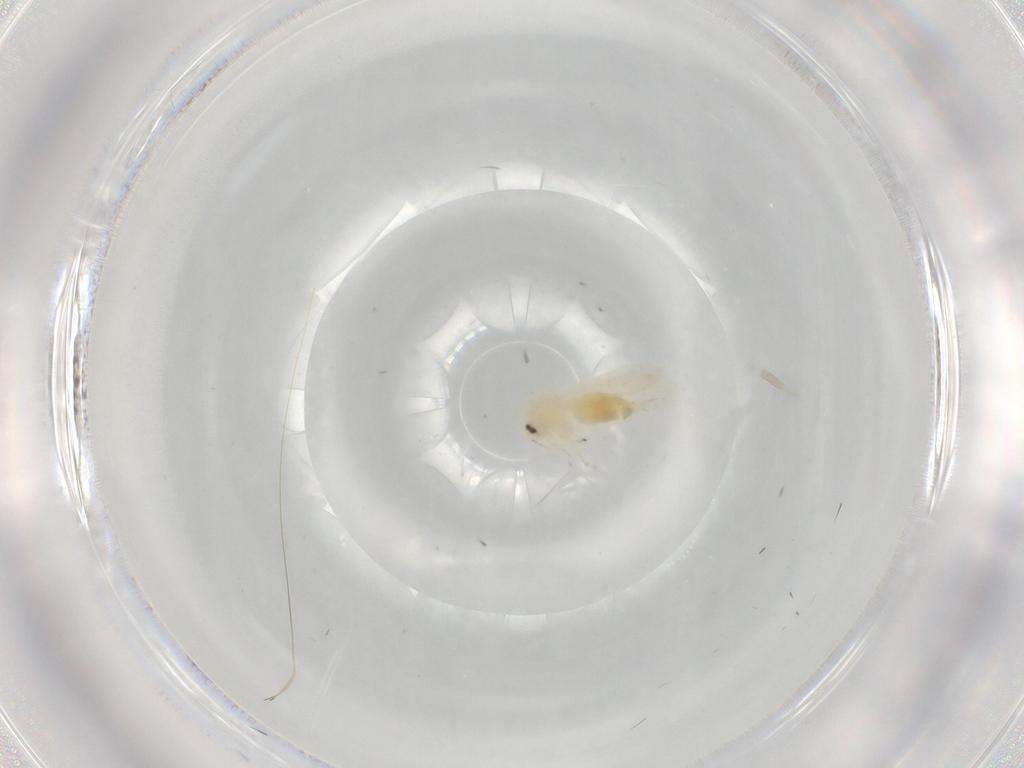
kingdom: Animalia
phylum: Arthropoda
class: Insecta
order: Hemiptera
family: Aleyrodidae
